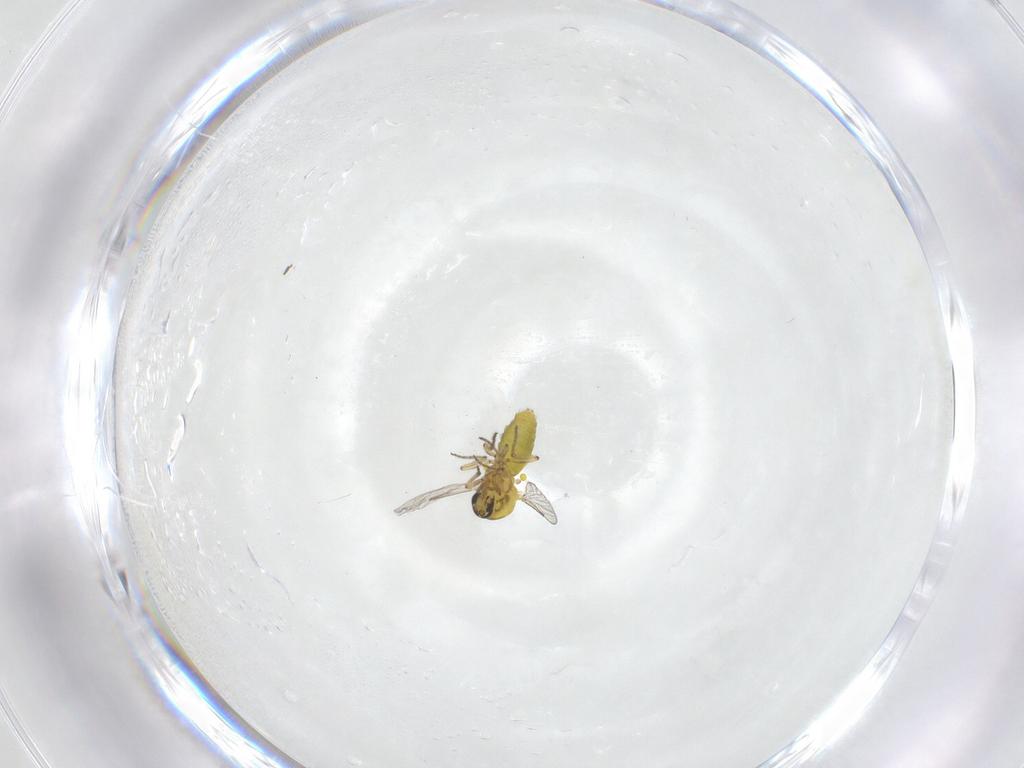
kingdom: Animalia
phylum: Arthropoda
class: Insecta
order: Diptera
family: Ceratopogonidae
